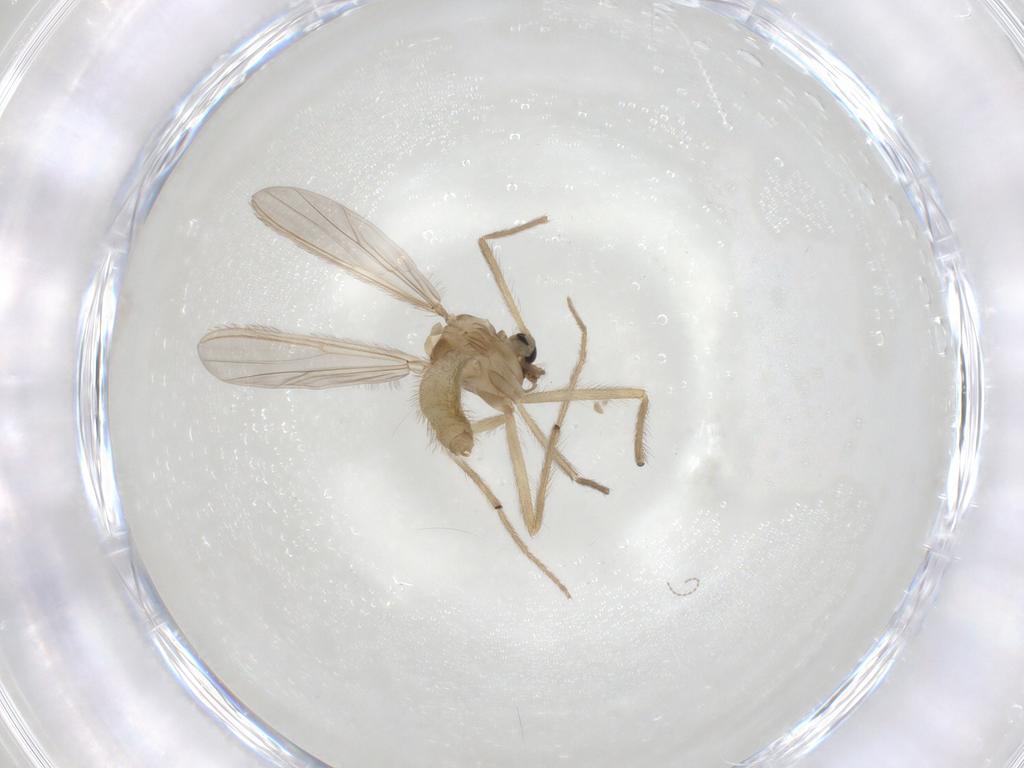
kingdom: Animalia
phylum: Arthropoda
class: Insecta
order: Diptera
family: Chironomidae
